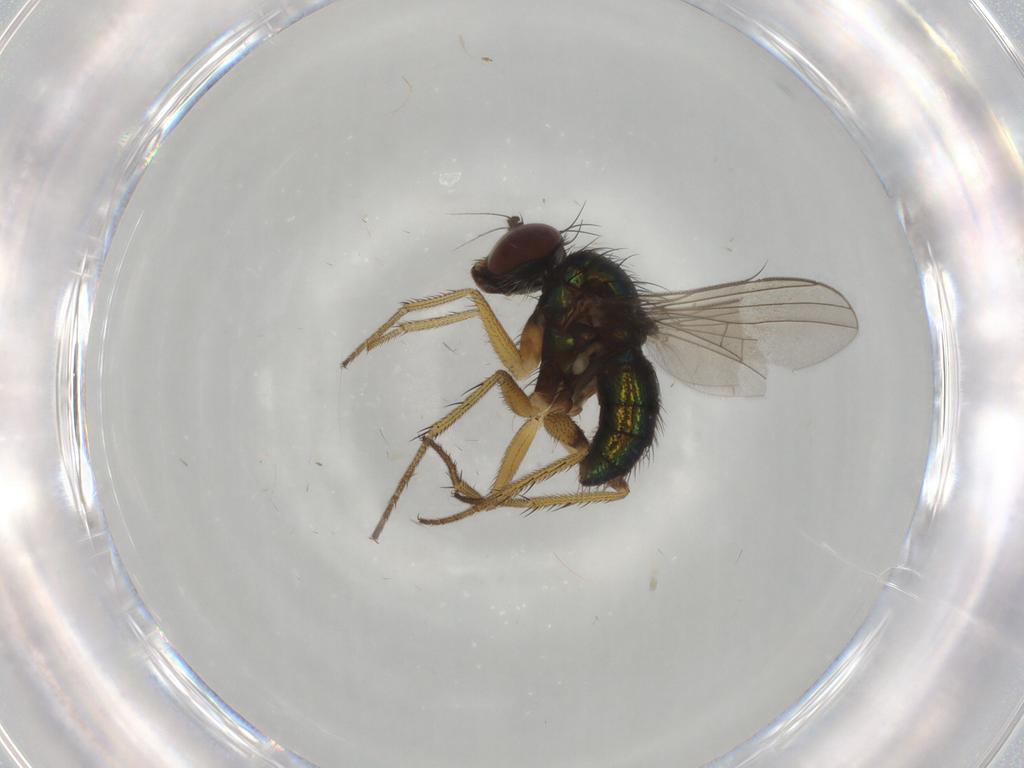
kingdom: Animalia
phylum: Arthropoda
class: Insecta
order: Diptera
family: Dolichopodidae
